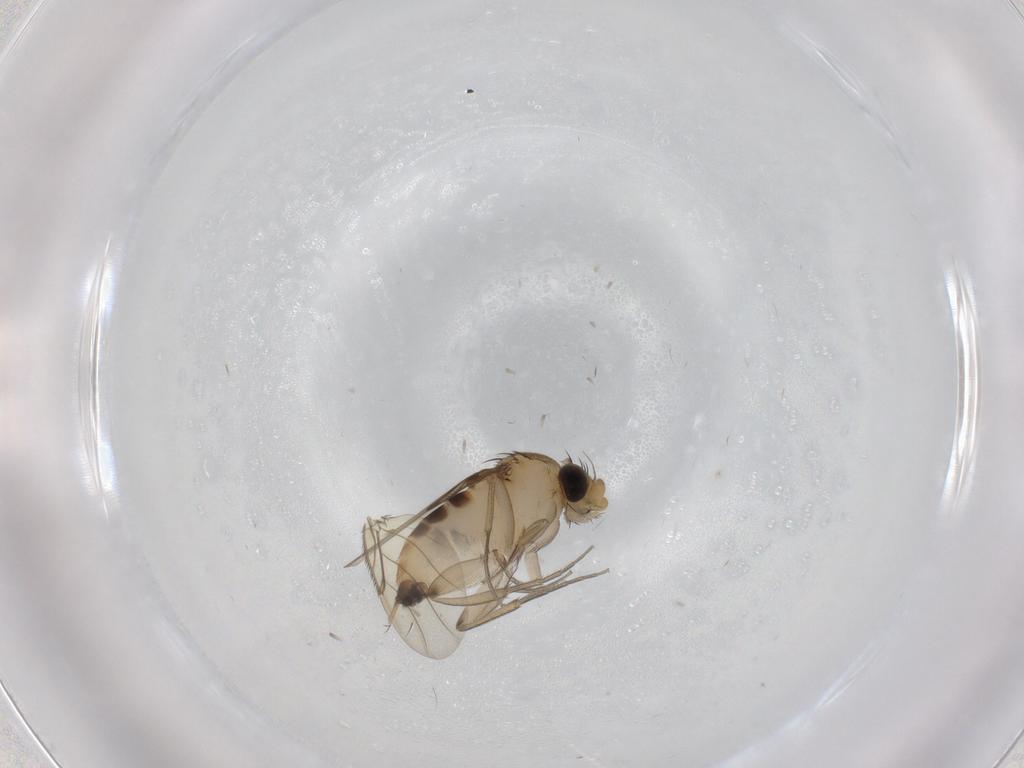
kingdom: Animalia
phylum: Arthropoda
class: Insecta
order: Diptera
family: Phoridae
